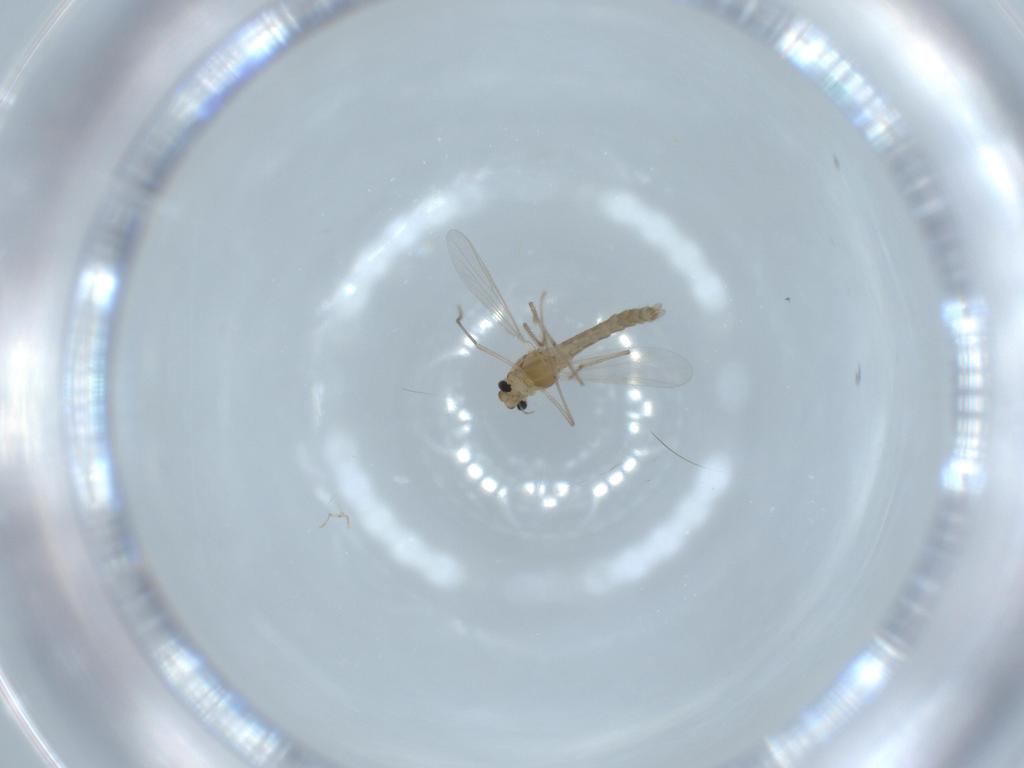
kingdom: Animalia
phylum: Arthropoda
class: Insecta
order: Diptera
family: Chironomidae
